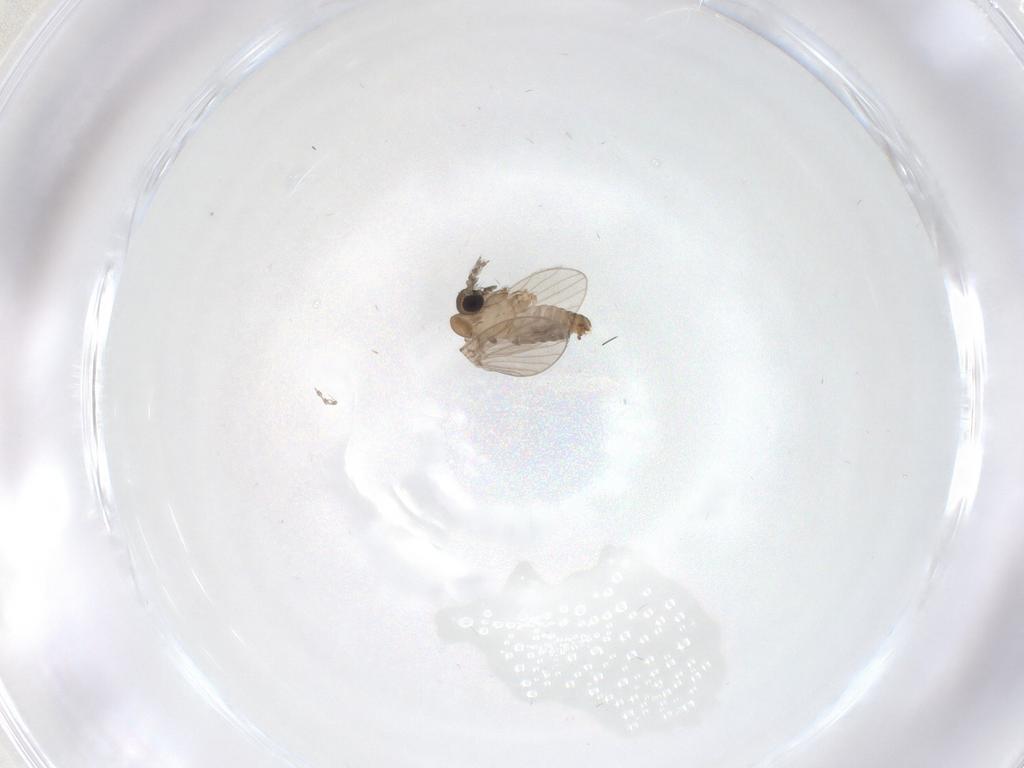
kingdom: Animalia
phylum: Arthropoda
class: Insecta
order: Diptera
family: Psychodidae
